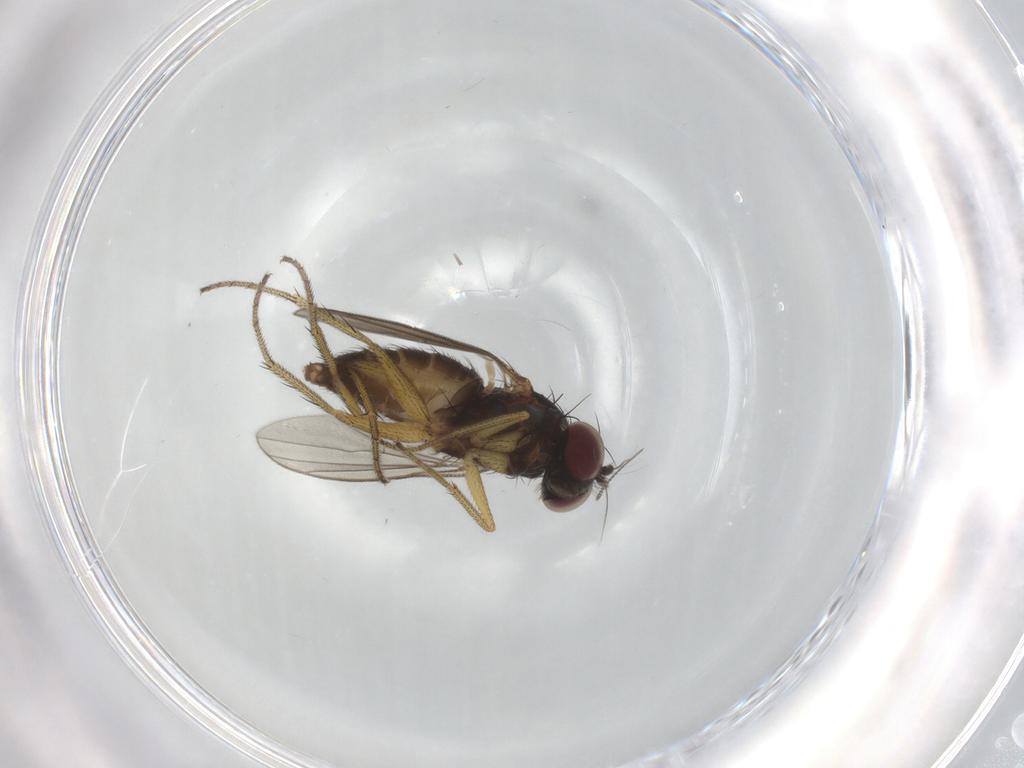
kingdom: Animalia
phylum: Arthropoda
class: Insecta
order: Diptera
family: Dolichopodidae
